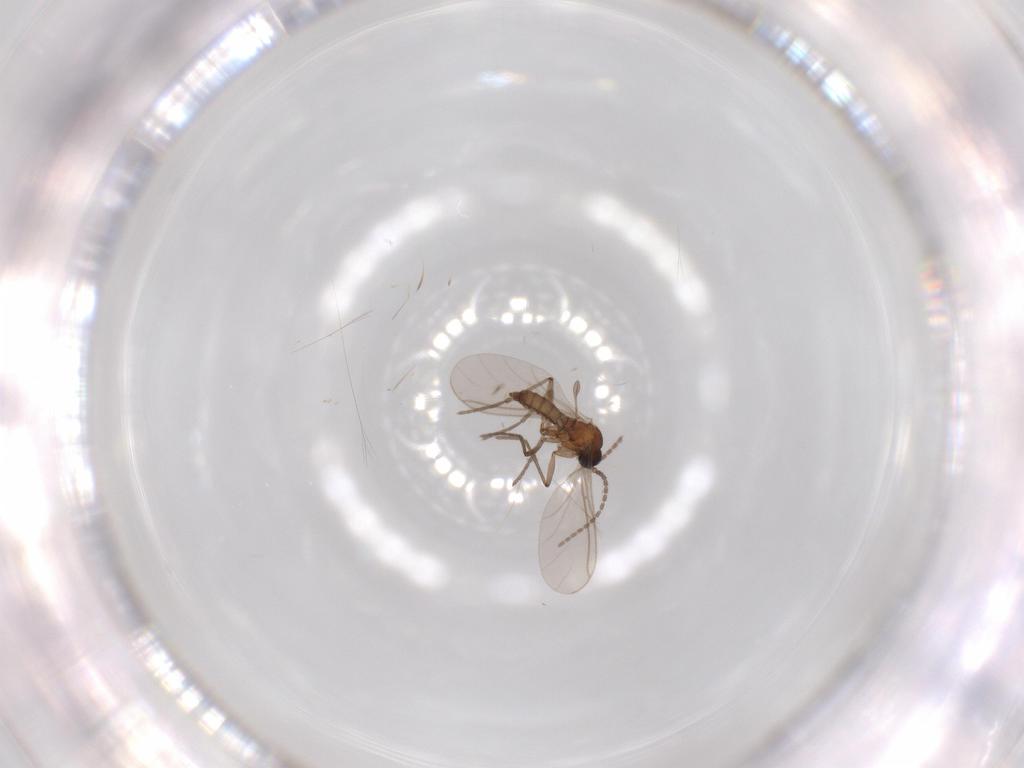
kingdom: Animalia
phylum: Arthropoda
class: Insecta
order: Diptera
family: Sciaridae
